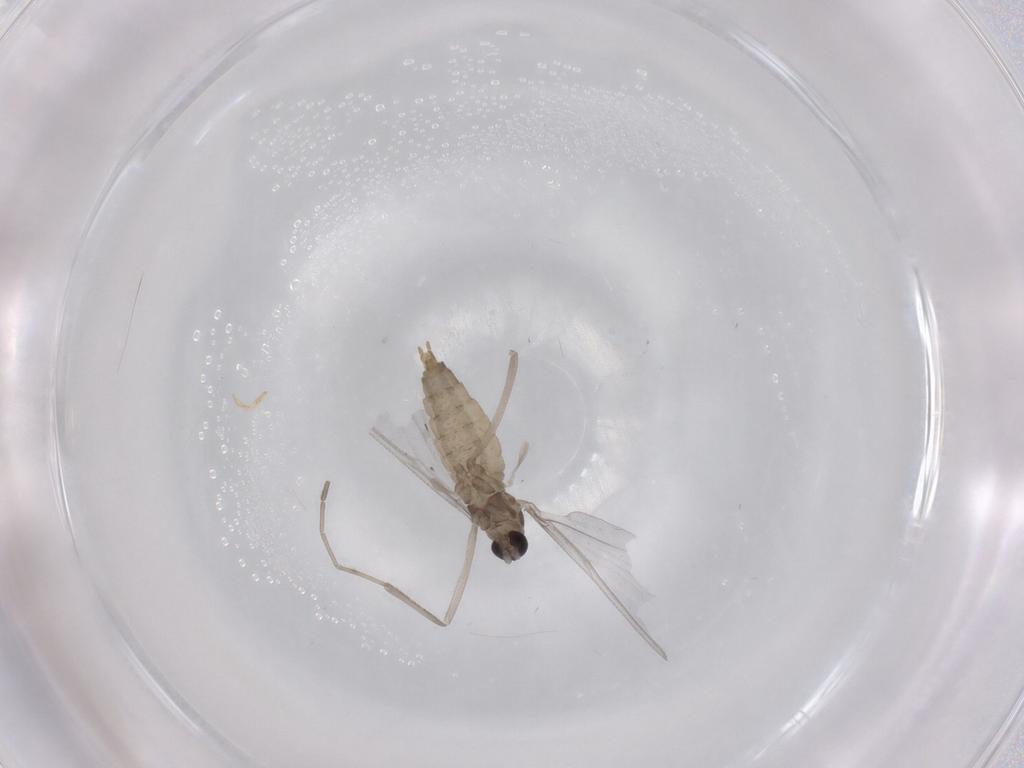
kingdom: Animalia
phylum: Arthropoda
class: Insecta
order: Diptera
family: Cecidomyiidae
